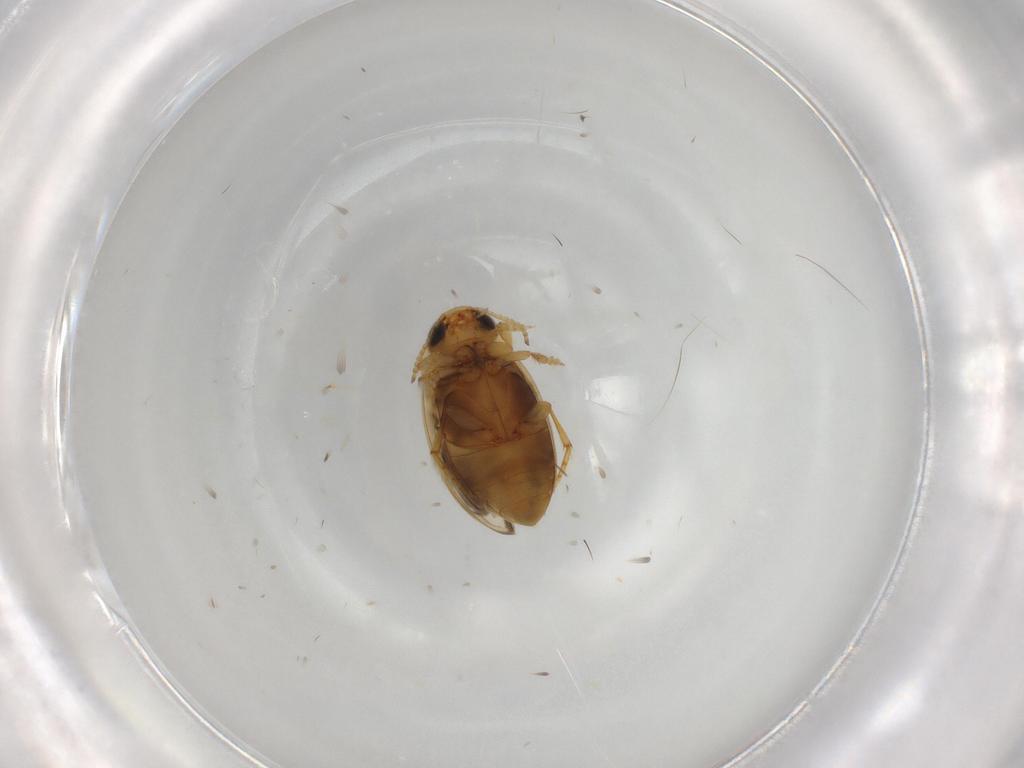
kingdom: Animalia
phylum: Arthropoda
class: Insecta
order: Coleoptera
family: Dytiscidae
